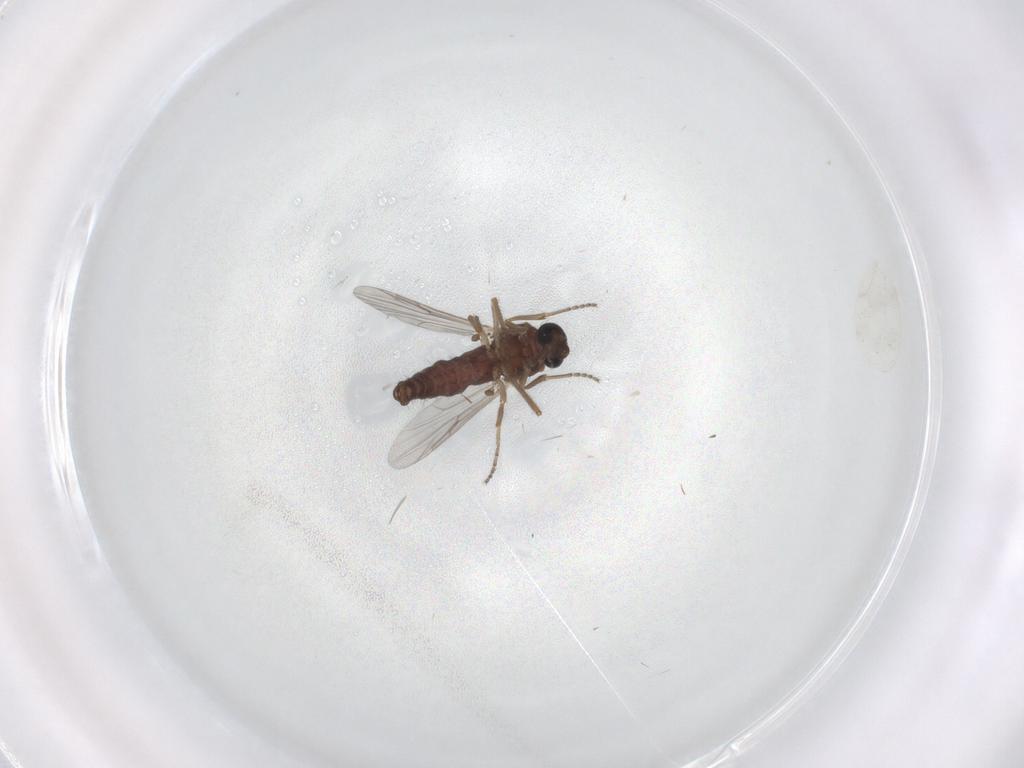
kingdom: Animalia
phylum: Arthropoda
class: Insecta
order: Diptera
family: Ceratopogonidae
